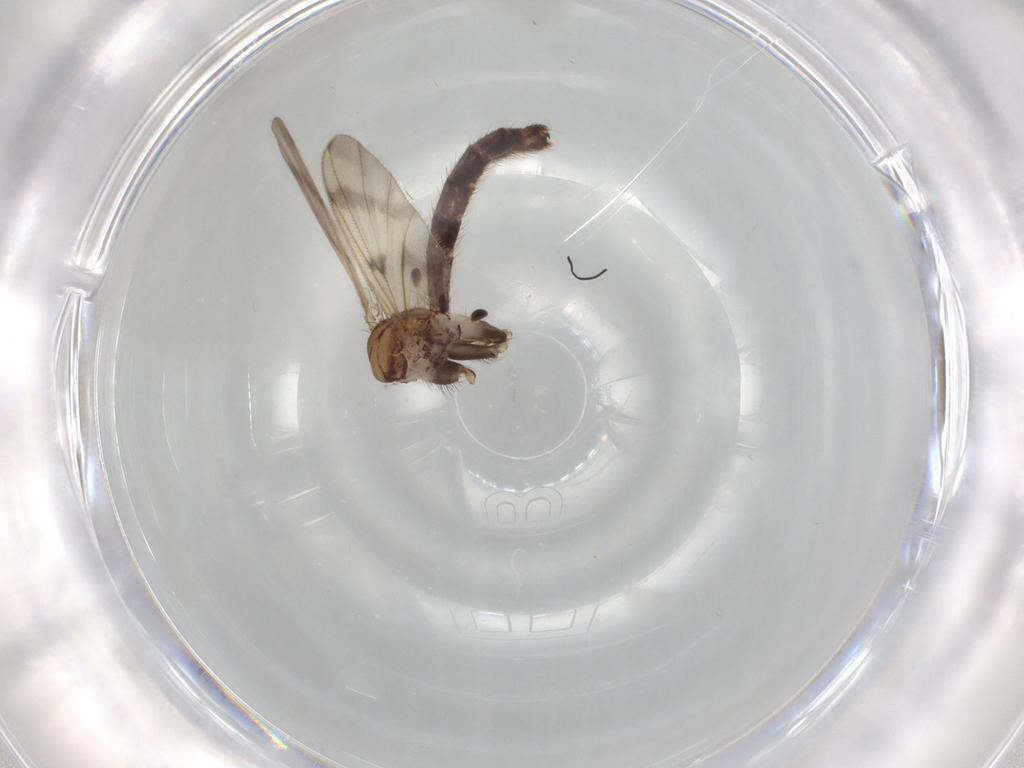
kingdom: Animalia
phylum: Arthropoda
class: Insecta
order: Diptera
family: Mycetophilidae
